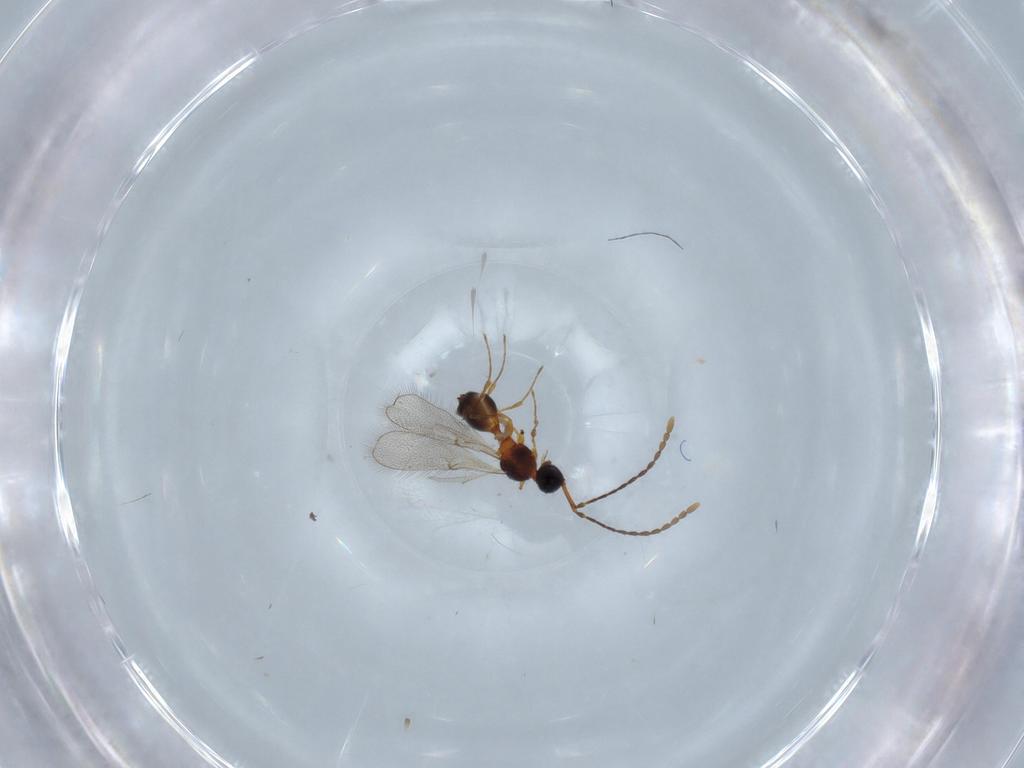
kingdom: Animalia
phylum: Arthropoda
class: Insecta
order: Hymenoptera
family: Diapriidae
